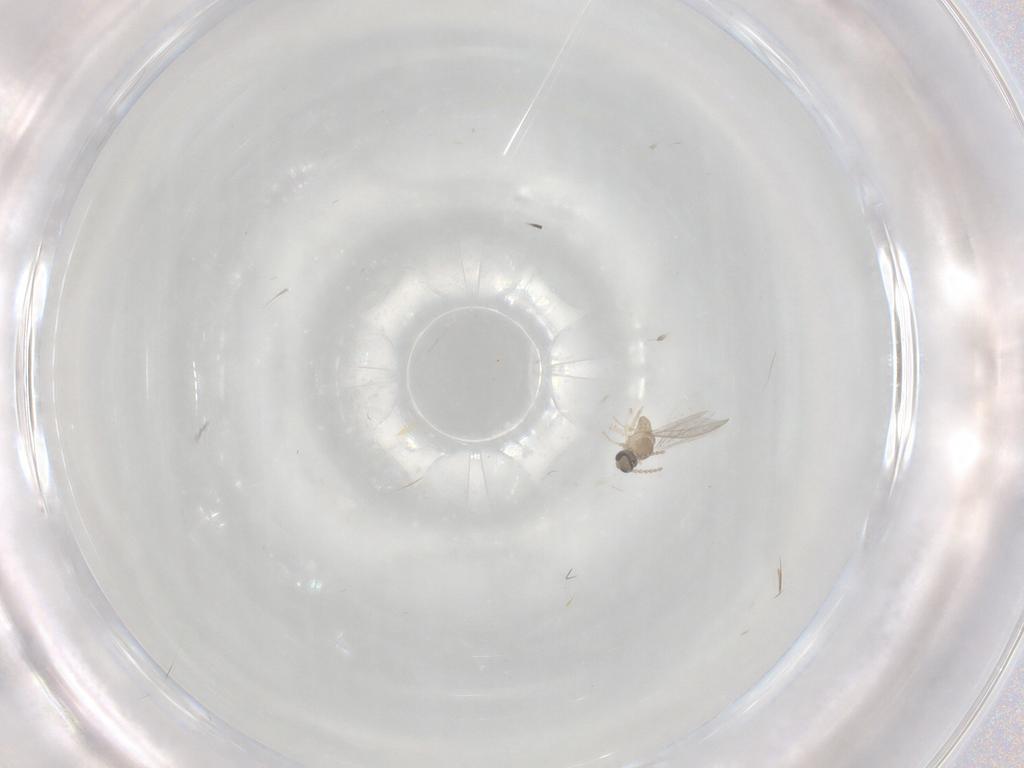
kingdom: Animalia
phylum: Arthropoda
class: Insecta
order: Diptera
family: Cecidomyiidae
